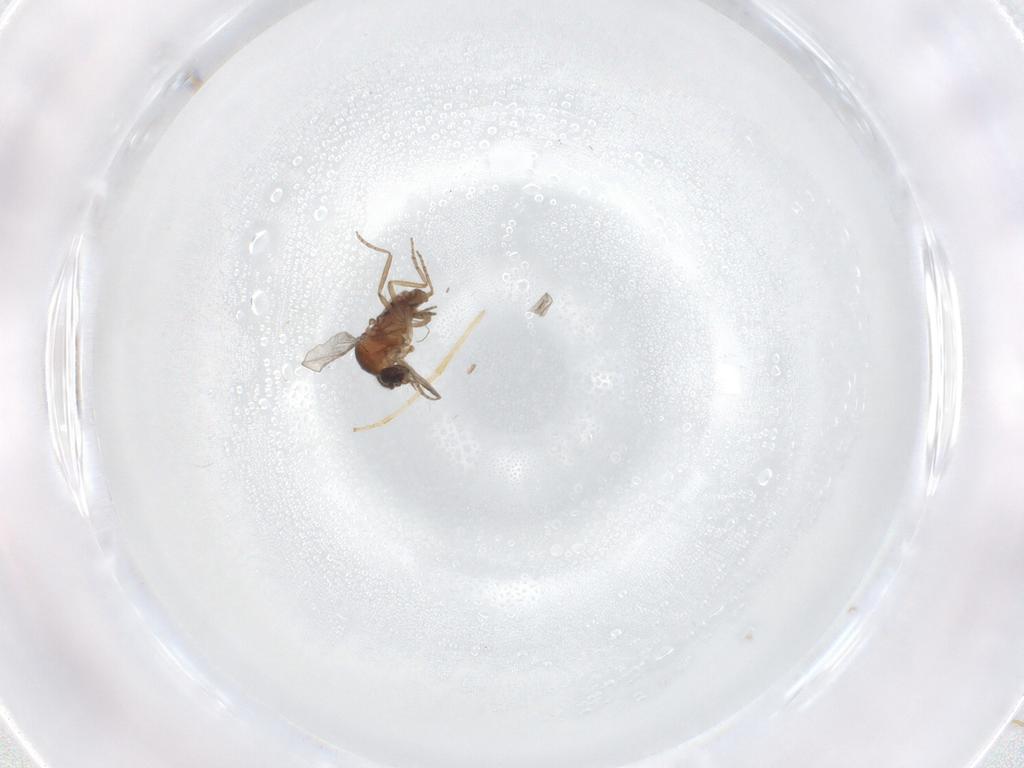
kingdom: Animalia
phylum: Arthropoda
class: Insecta
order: Diptera
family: Chironomidae
